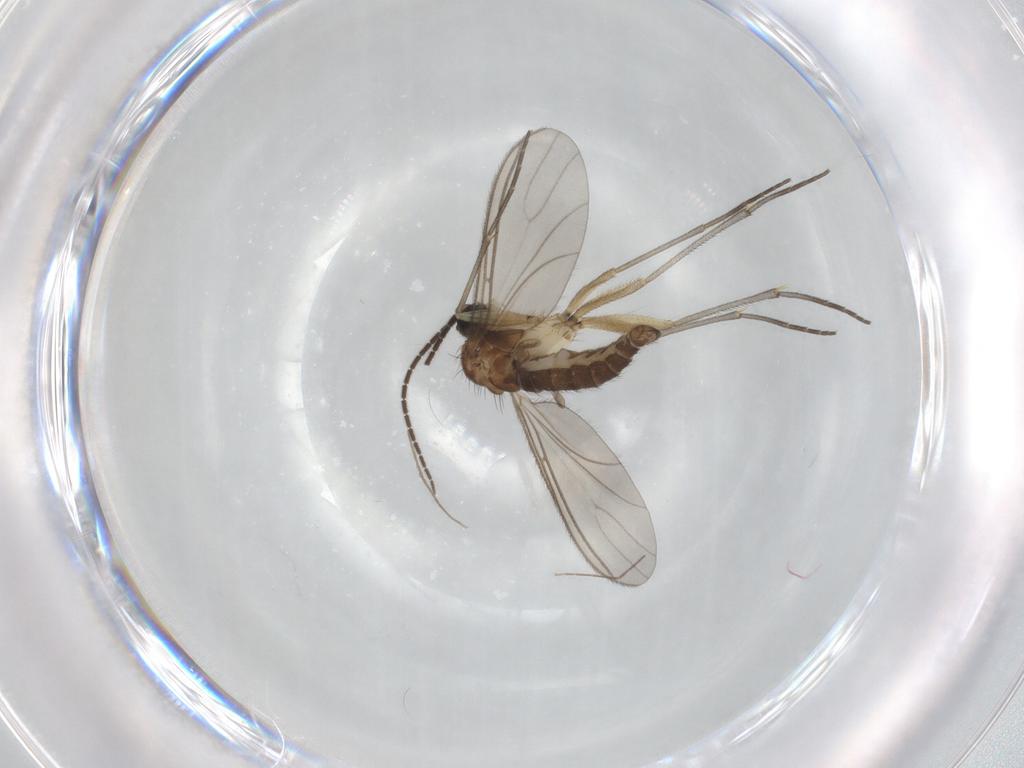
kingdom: Animalia
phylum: Arthropoda
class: Insecta
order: Diptera
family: Sciaridae
